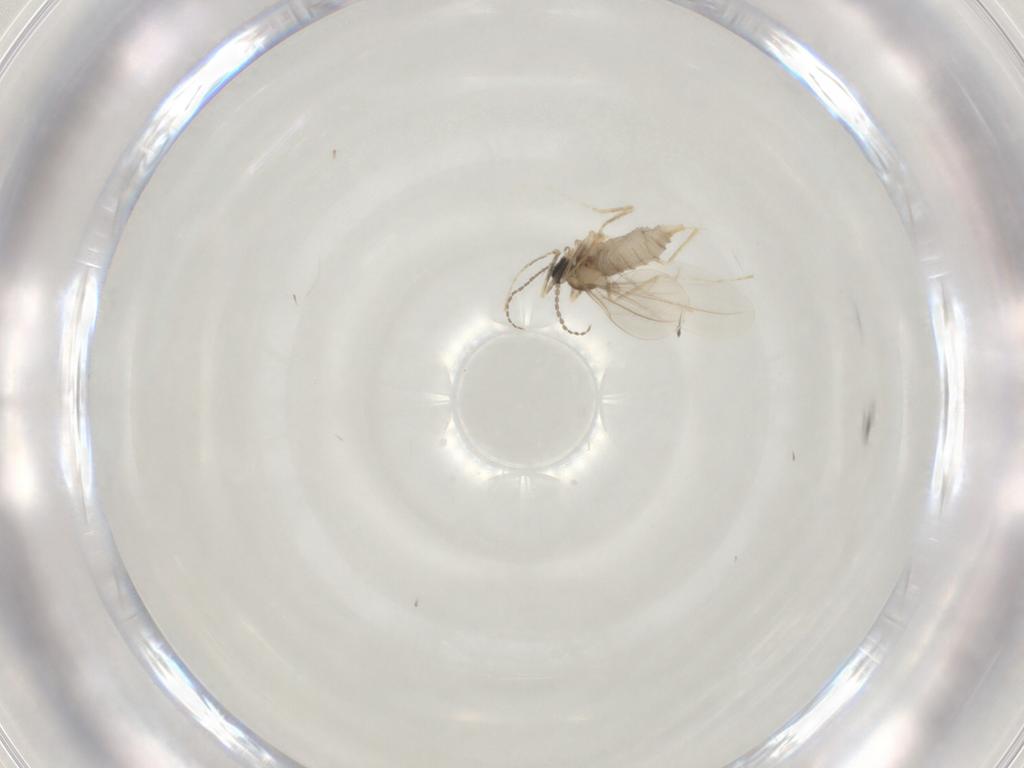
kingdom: Animalia
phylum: Arthropoda
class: Insecta
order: Diptera
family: Cecidomyiidae
